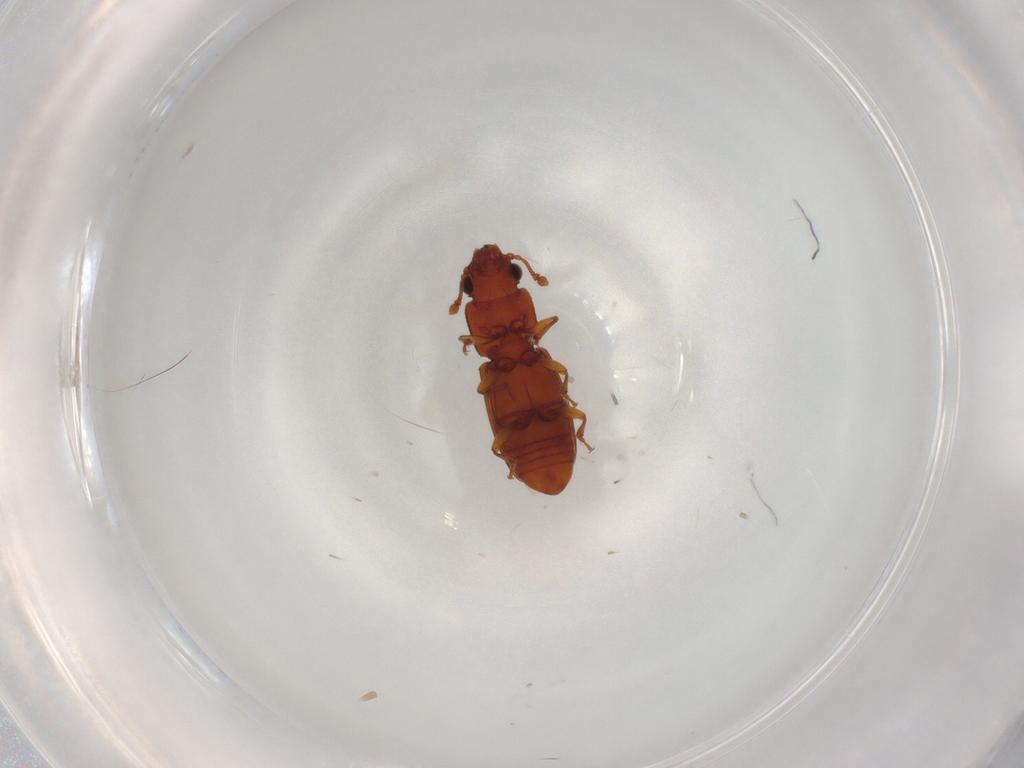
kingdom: Animalia
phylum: Arthropoda
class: Insecta
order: Coleoptera
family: Monotomidae
